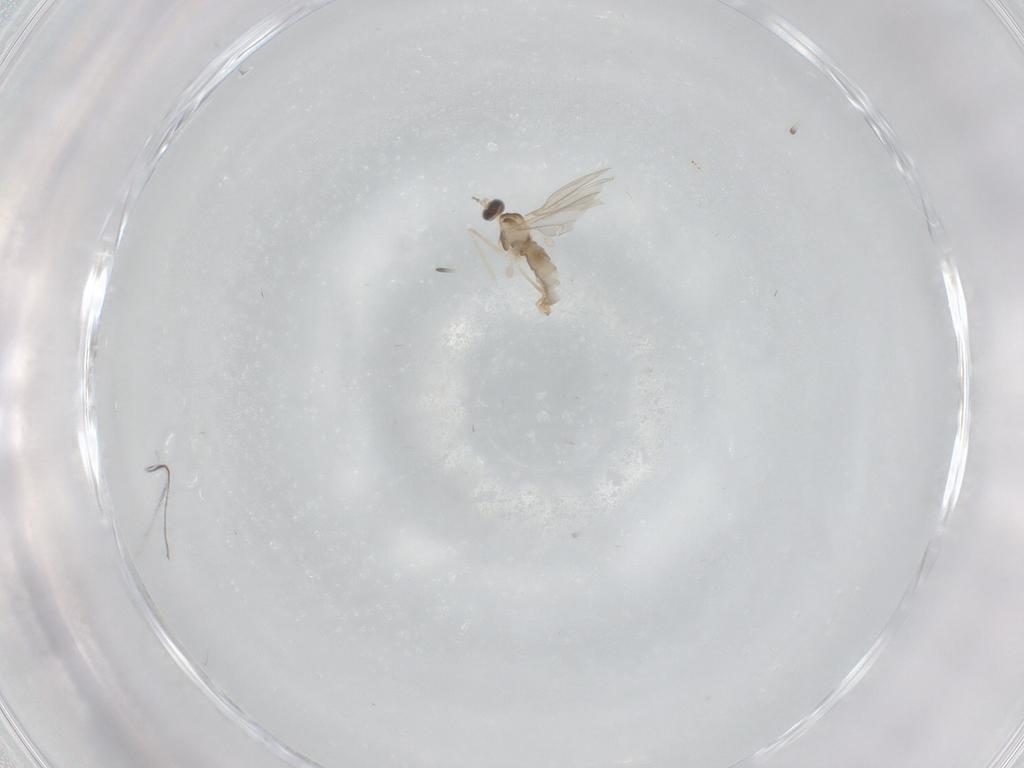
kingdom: Animalia
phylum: Arthropoda
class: Insecta
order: Diptera
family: Cecidomyiidae
